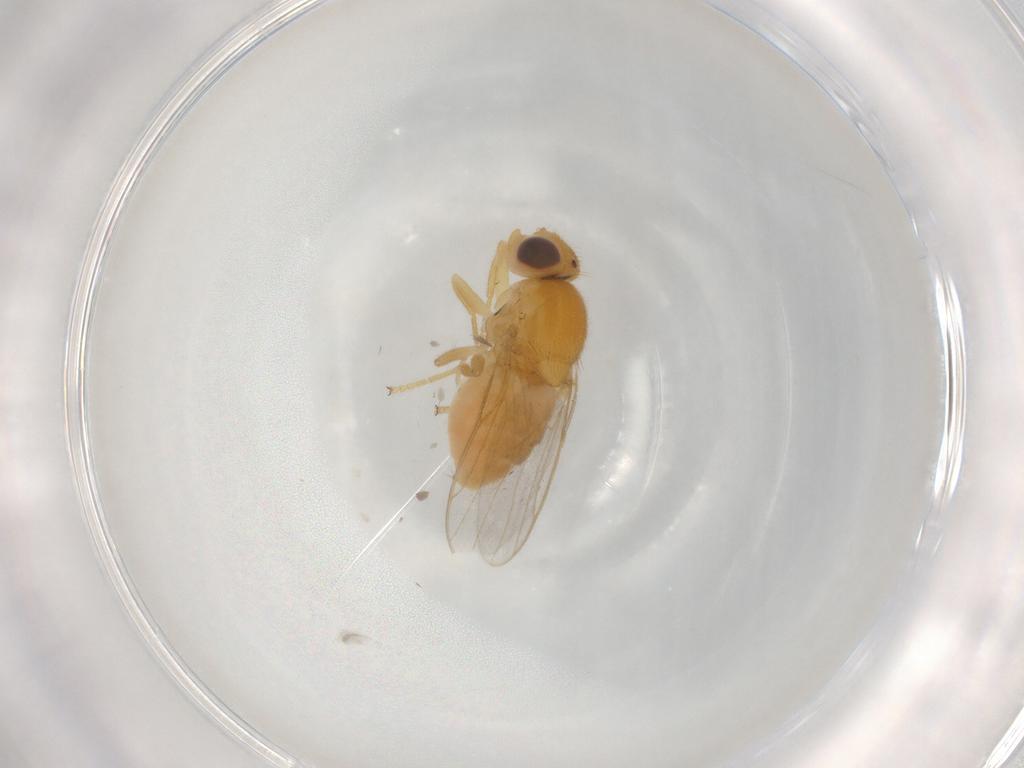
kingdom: Animalia
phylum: Arthropoda
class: Insecta
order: Diptera
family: Chloropidae
